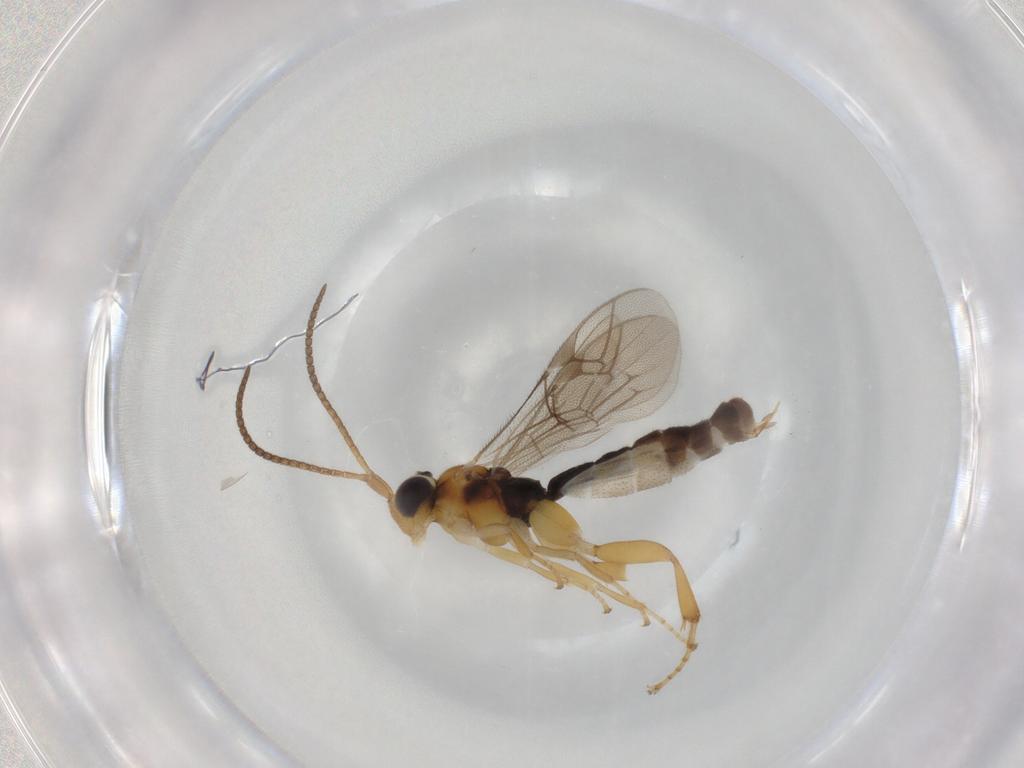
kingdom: Animalia
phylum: Arthropoda
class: Insecta
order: Hymenoptera
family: Ichneumonidae
